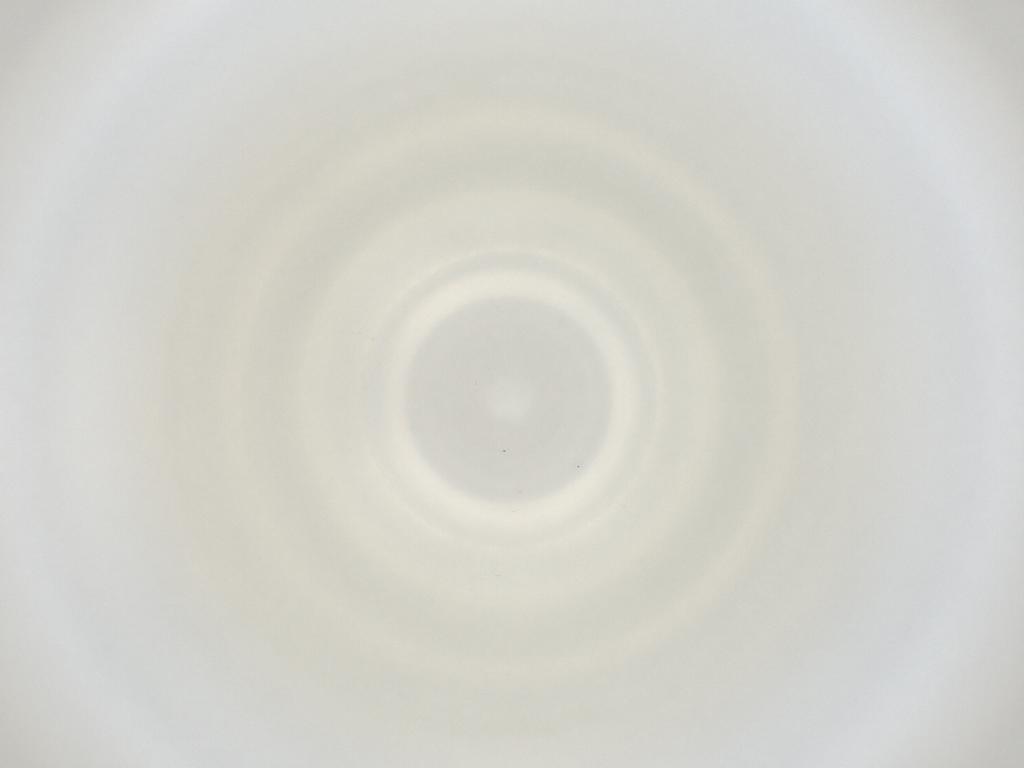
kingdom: Animalia
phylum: Arthropoda
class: Insecta
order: Diptera
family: Cecidomyiidae
